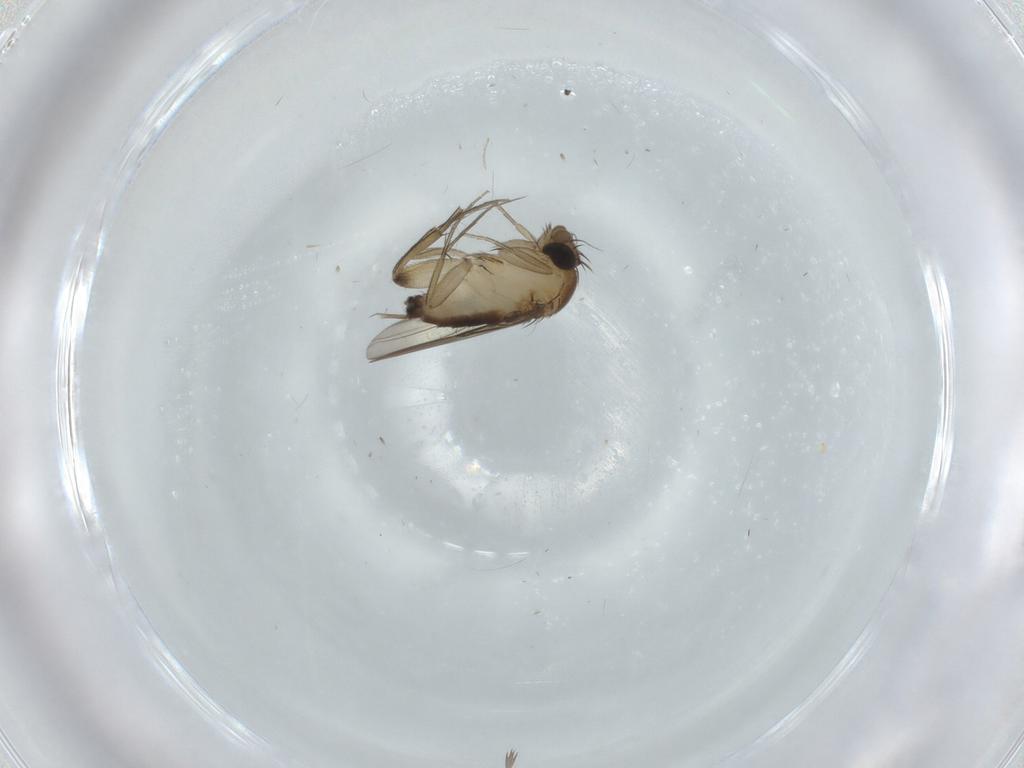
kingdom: Animalia
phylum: Arthropoda
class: Insecta
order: Diptera
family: Phoridae
